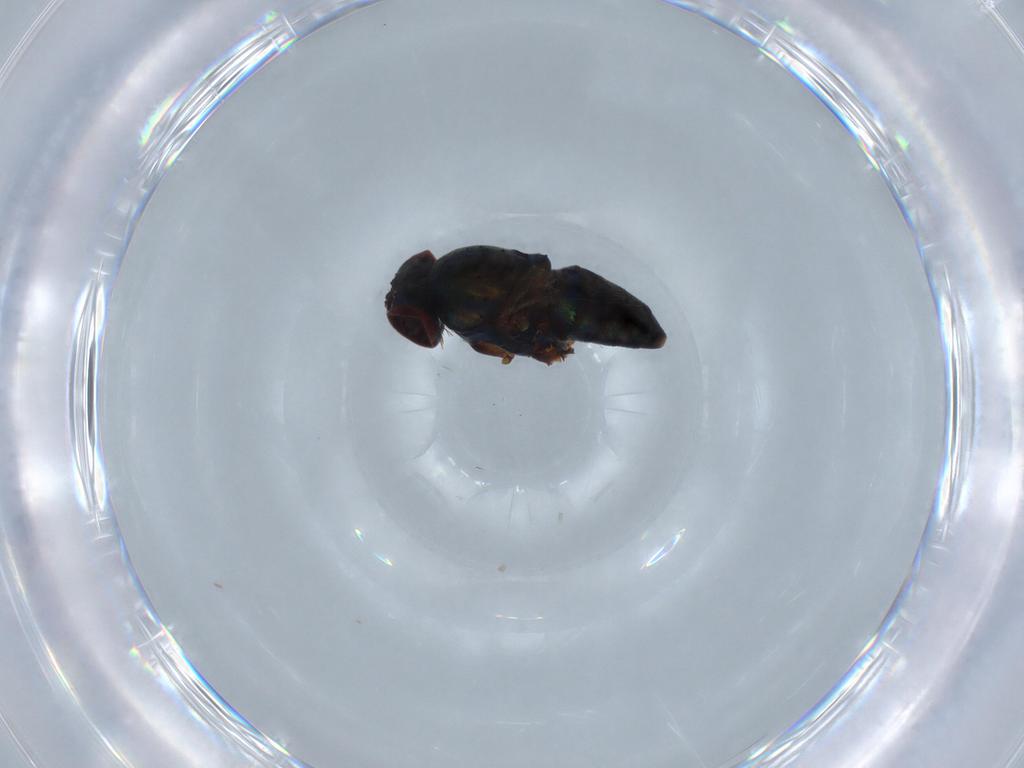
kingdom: Animalia
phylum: Arthropoda
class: Insecta
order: Diptera
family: Dolichopodidae
